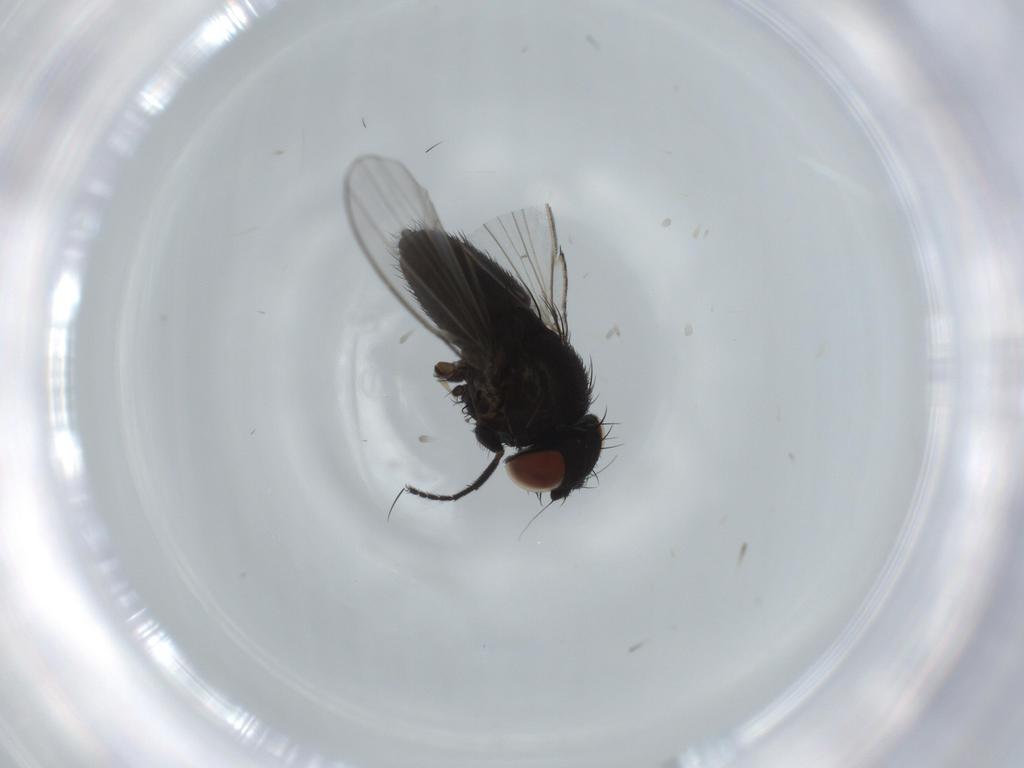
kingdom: Animalia
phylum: Arthropoda
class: Insecta
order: Diptera
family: Milichiidae
